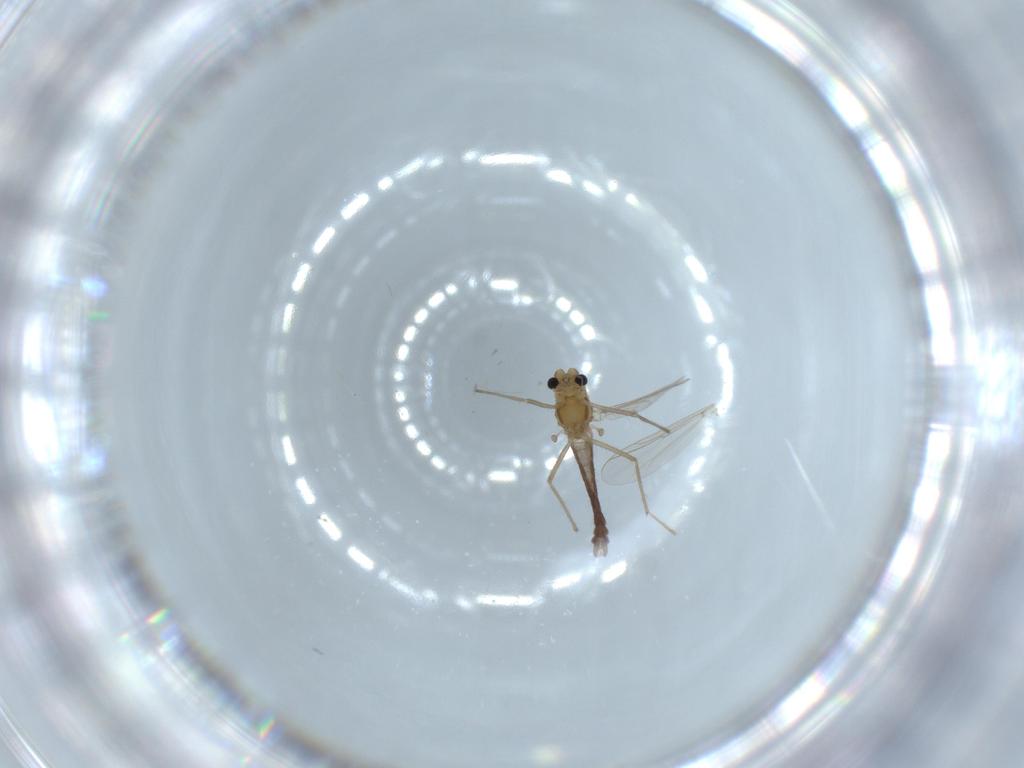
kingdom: Animalia
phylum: Arthropoda
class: Insecta
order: Diptera
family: Chironomidae
